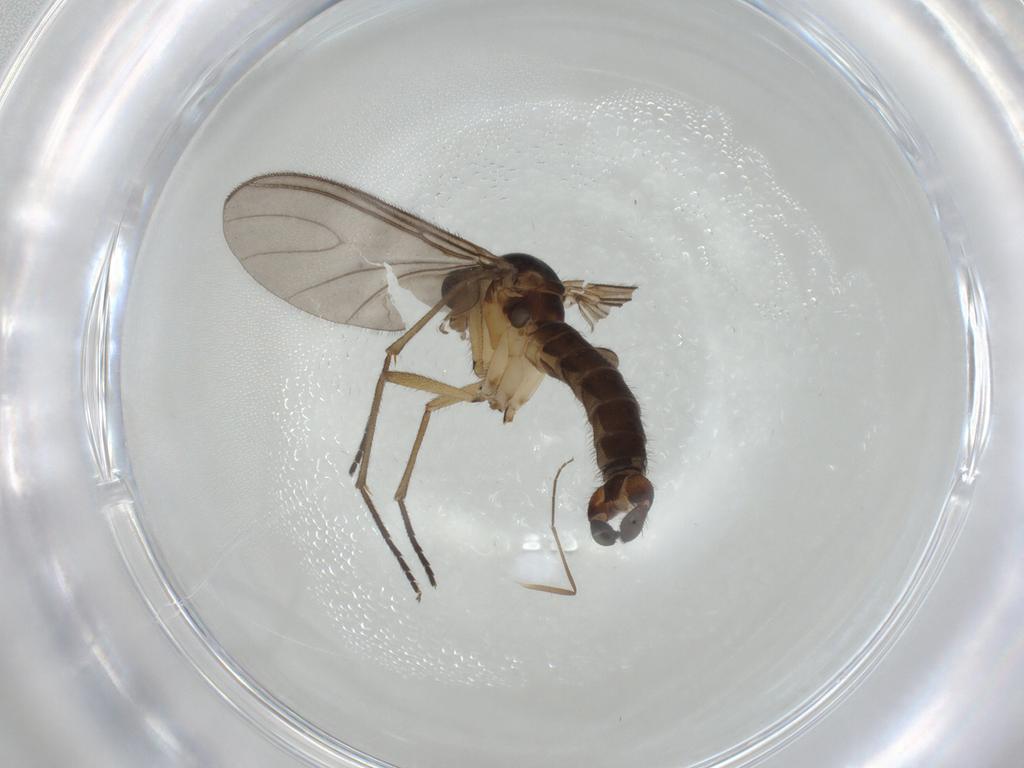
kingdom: Animalia
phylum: Arthropoda
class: Insecta
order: Diptera
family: Sciaridae
